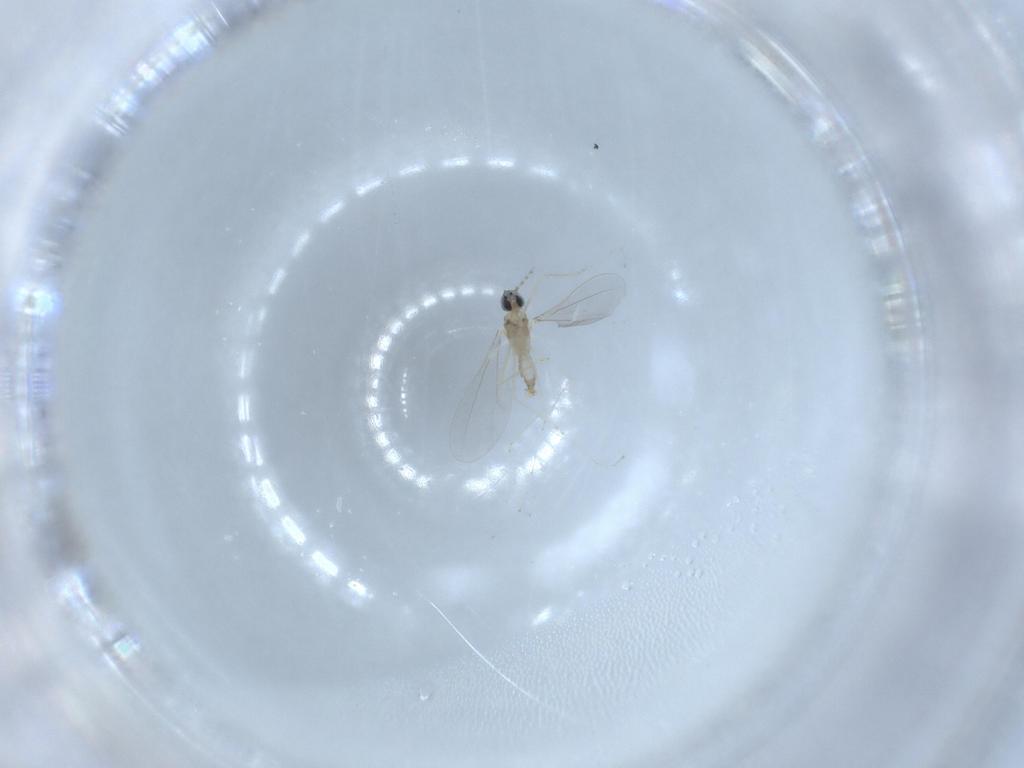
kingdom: Animalia
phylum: Arthropoda
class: Insecta
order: Diptera
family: Cecidomyiidae
